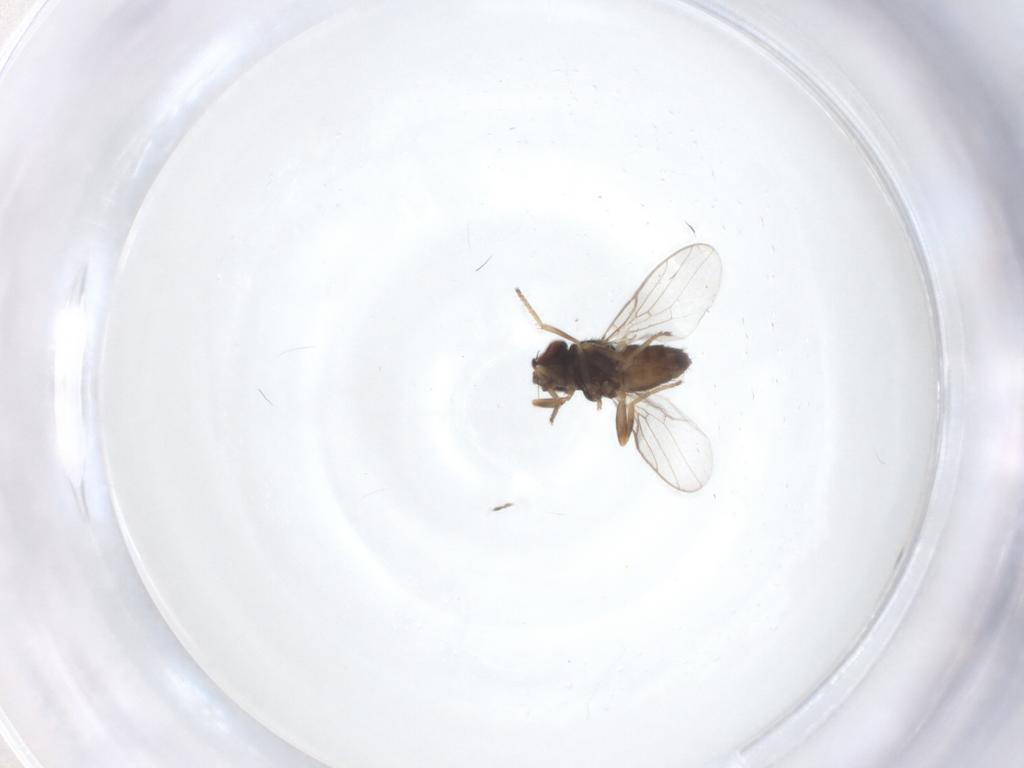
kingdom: Animalia
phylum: Arthropoda
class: Insecta
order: Diptera
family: Chloropidae
